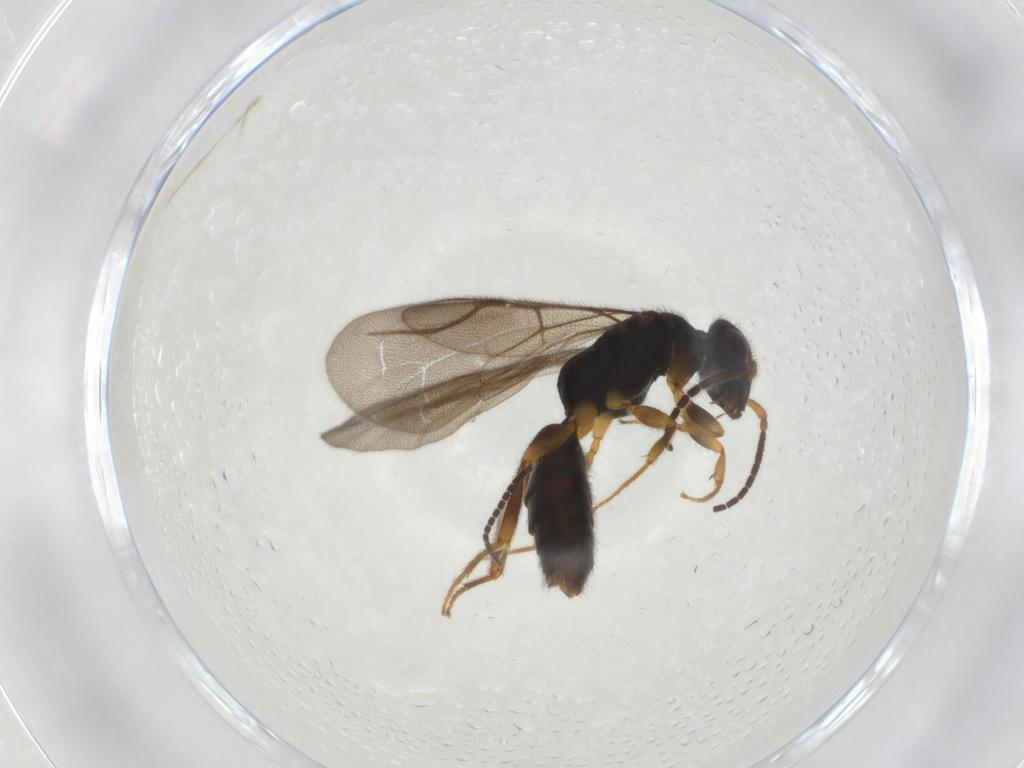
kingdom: Animalia
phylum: Arthropoda
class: Insecta
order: Hymenoptera
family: Bethylidae
